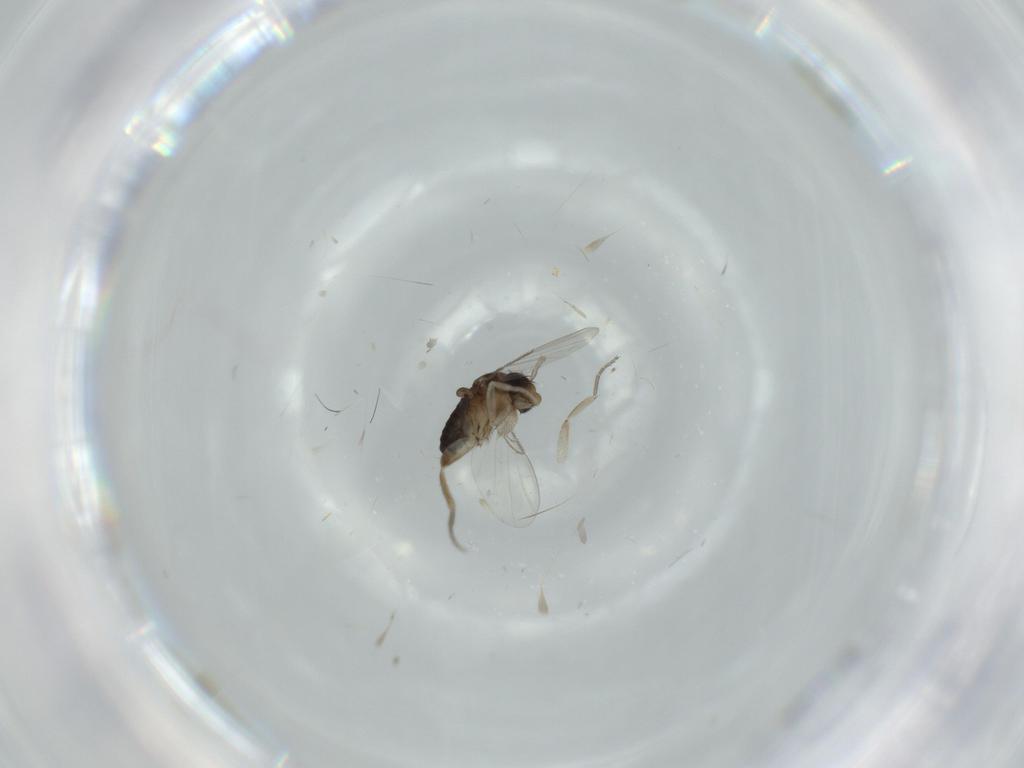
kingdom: Animalia
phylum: Arthropoda
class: Insecta
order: Diptera
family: Phoridae
